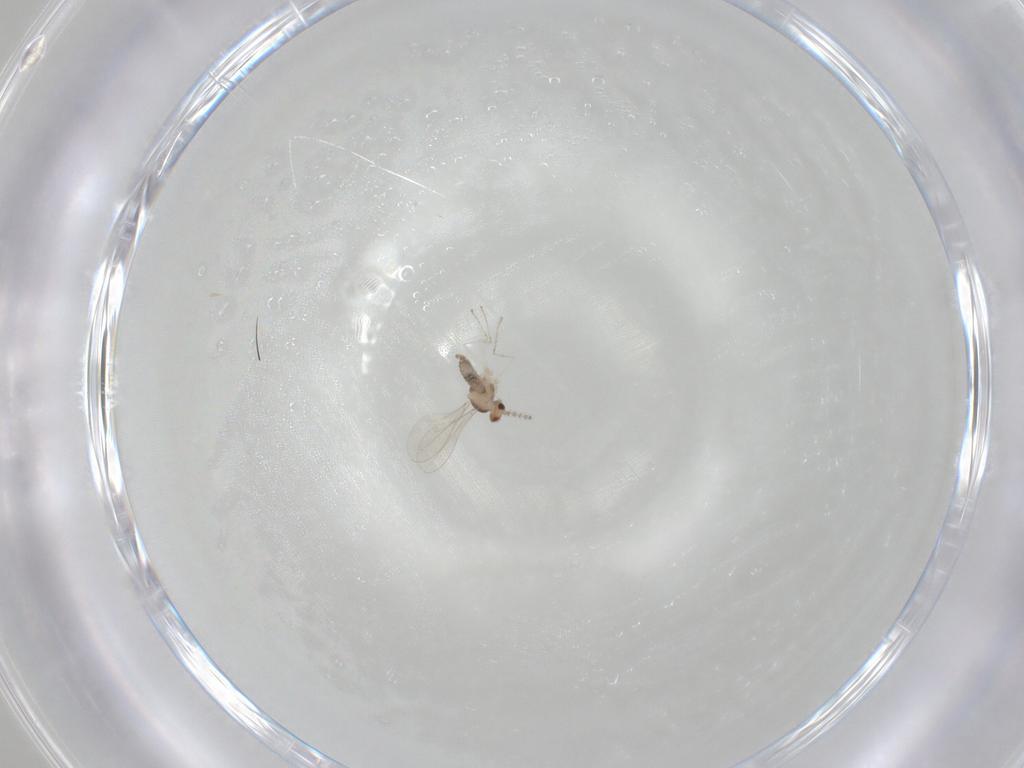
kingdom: Animalia
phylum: Arthropoda
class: Insecta
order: Diptera
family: Cecidomyiidae
